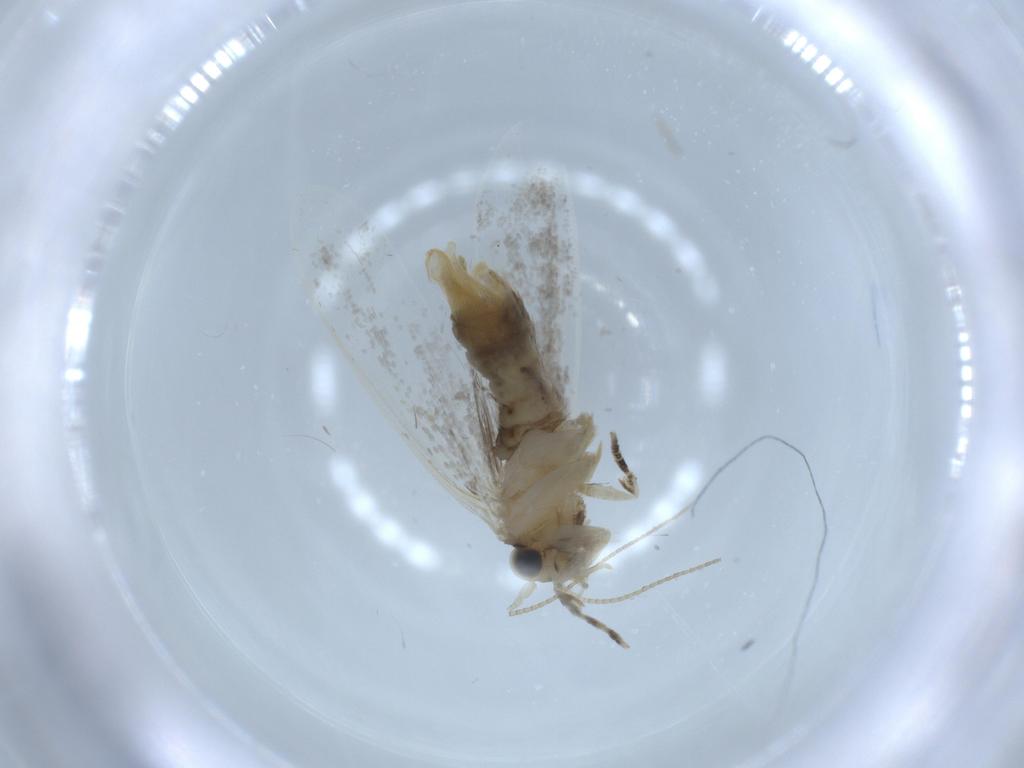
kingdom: Animalia
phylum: Arthropoda
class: Insecta
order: Lepidoptera
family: Tineidae
